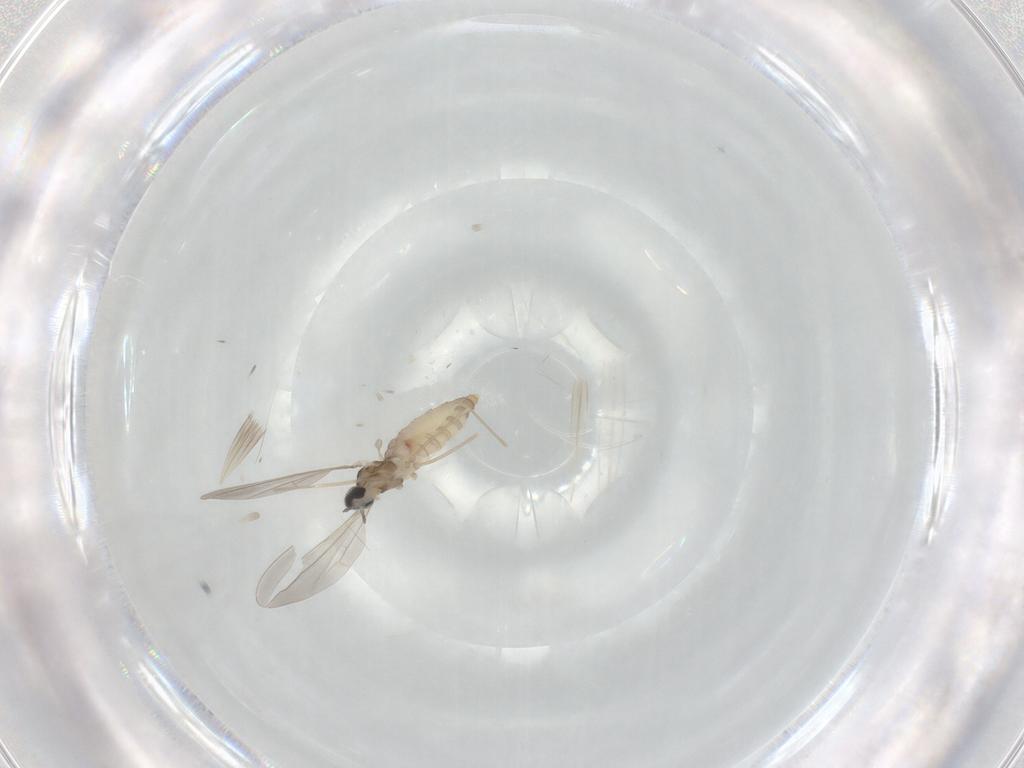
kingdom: Animalia
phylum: Arthropoda
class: Insecta
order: Diptera
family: Cecidomyiidae
